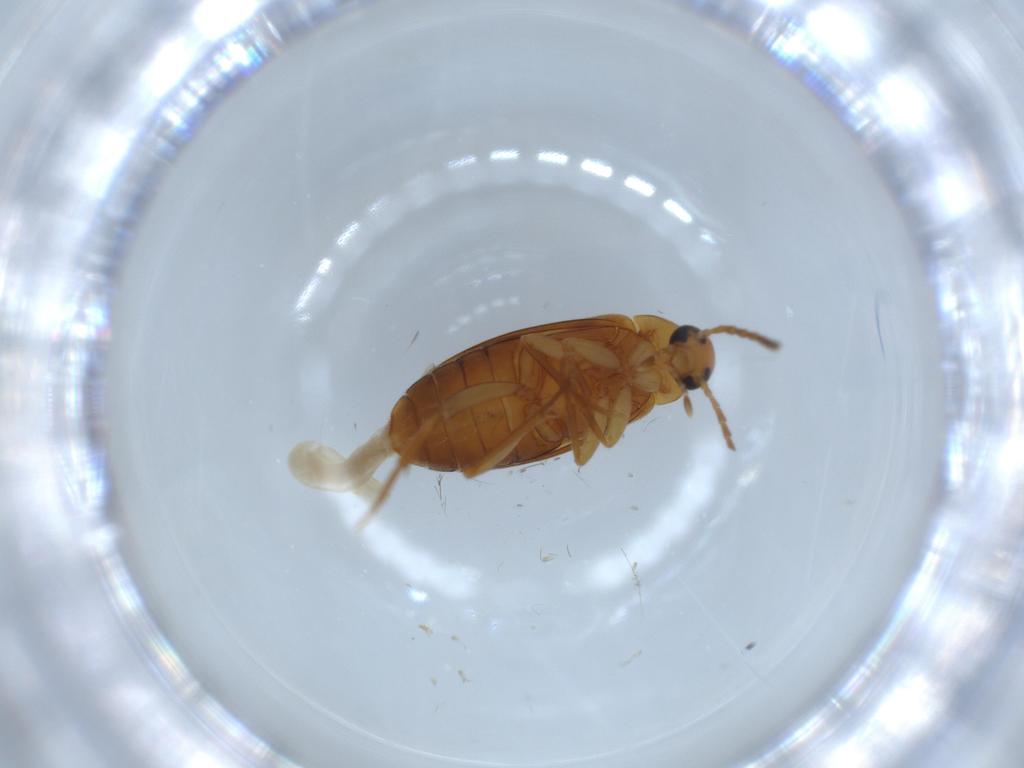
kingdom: Animalia
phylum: Arthropoda
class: Insecta
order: Coleoptera
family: Scraptiidae
